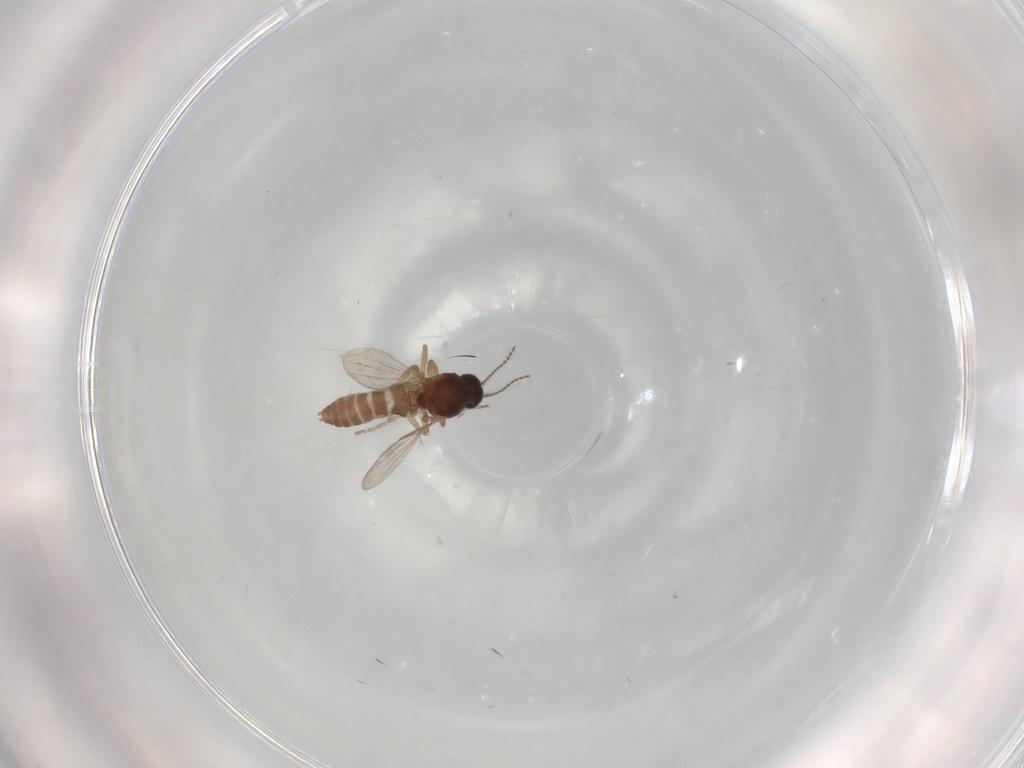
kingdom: Animalia
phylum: Arthropoda
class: Insecta
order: Diptera
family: Ceratopogonidae
